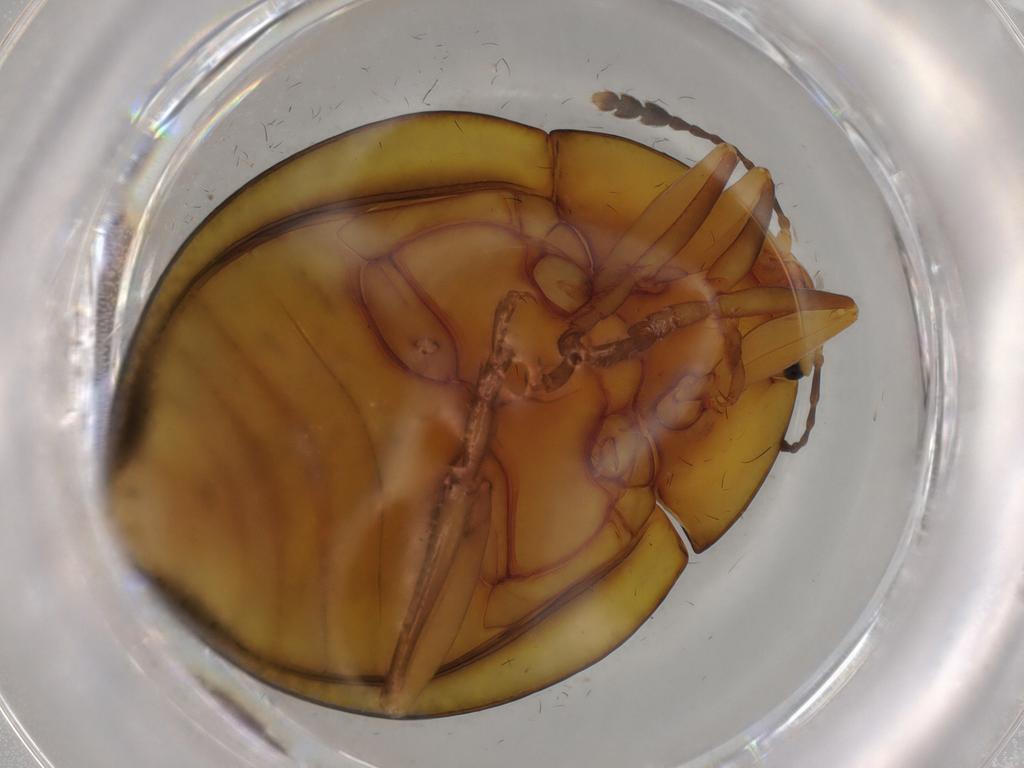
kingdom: Animalia
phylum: Arthropoda
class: Insecta
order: Coleoptera
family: Erotylidae
